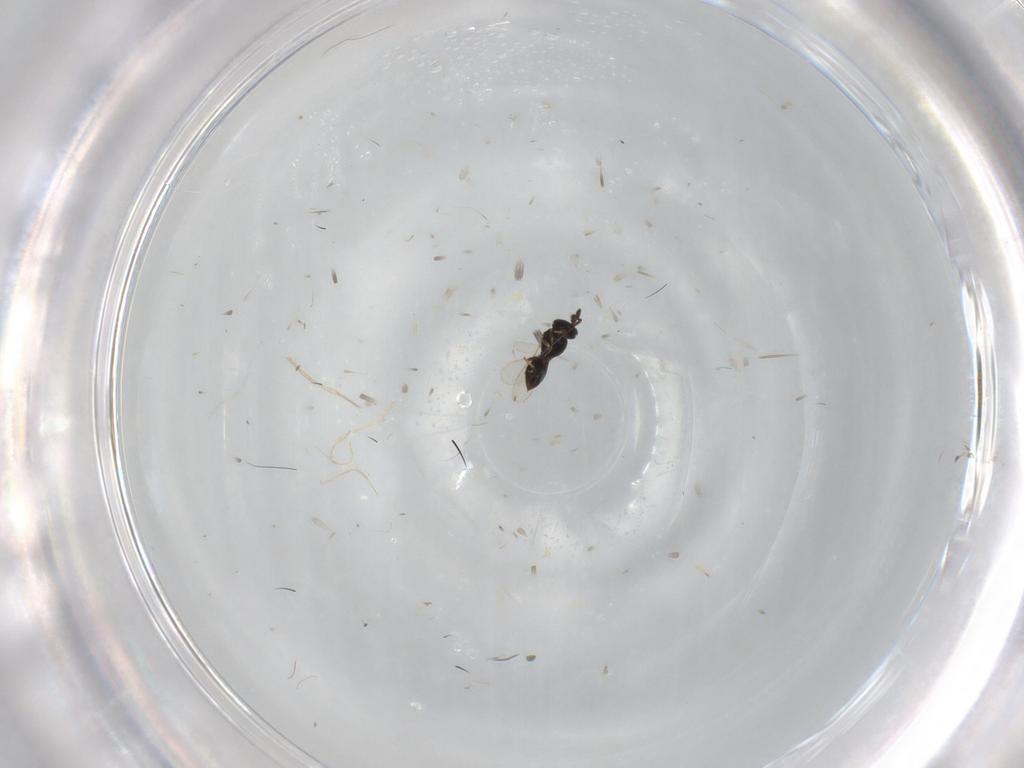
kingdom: Animalia
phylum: Arthropoda
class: Insecta
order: Hymenoptera
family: Scelionidae
